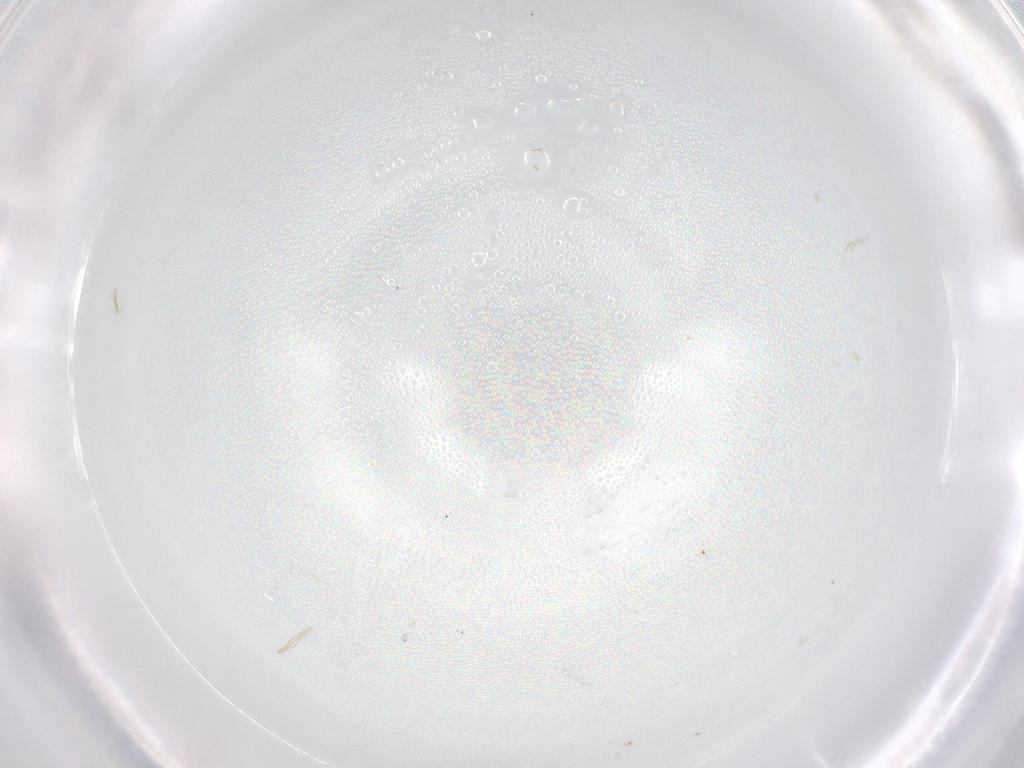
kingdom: Animalia
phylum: Arthropoda
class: Insecta
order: Hymenoptera
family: Diapriidae
